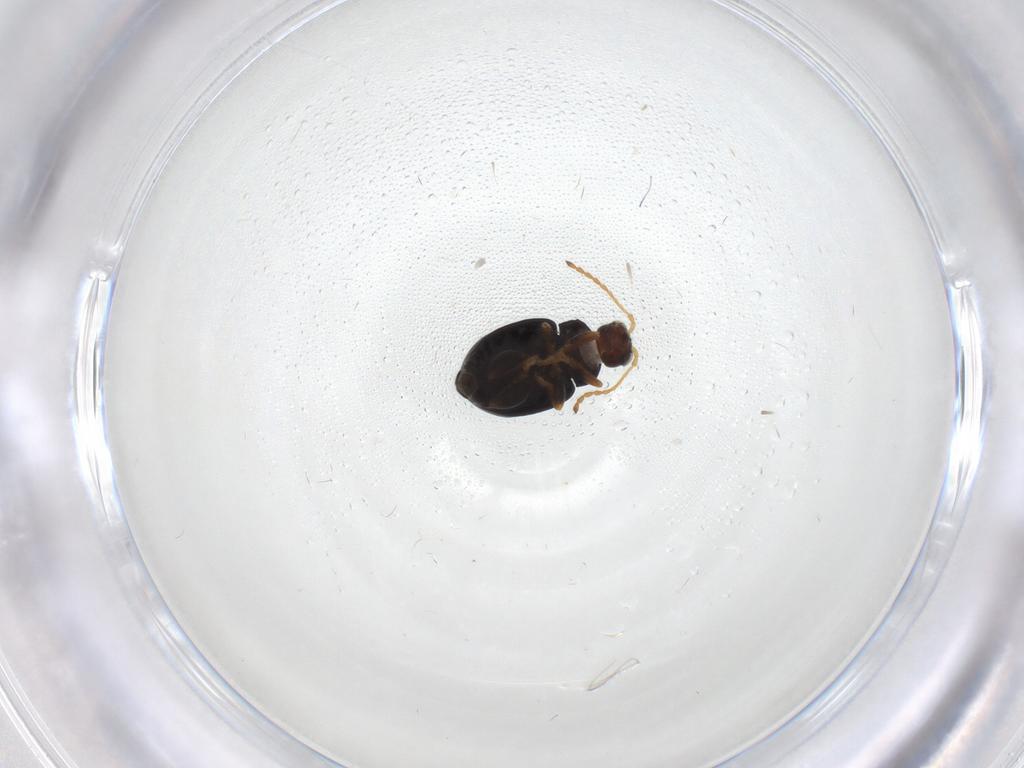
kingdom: Animalia
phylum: Arthropoda
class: Insecta
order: Coleoptera
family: Chrysomelidae
